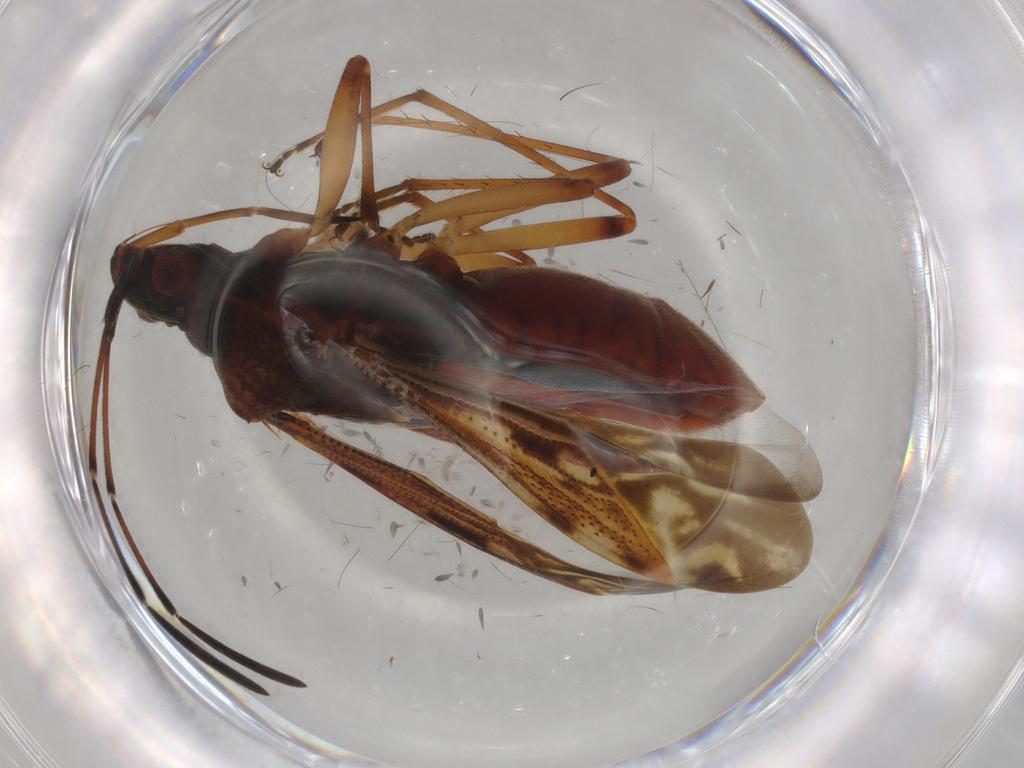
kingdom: Animalia
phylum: Arthropoda
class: Insecta
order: Hemiptera
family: Rhyparochromidae
